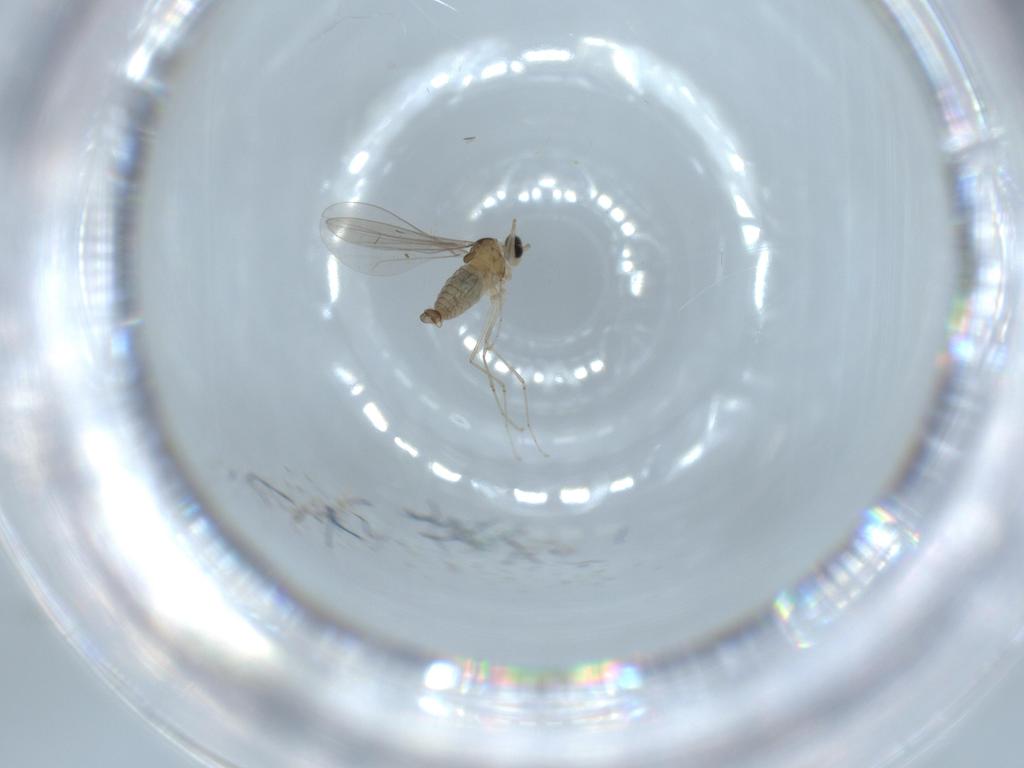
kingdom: Animalia
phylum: Arthropoda
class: Insecta
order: Diptera
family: Cecidomyiidae
